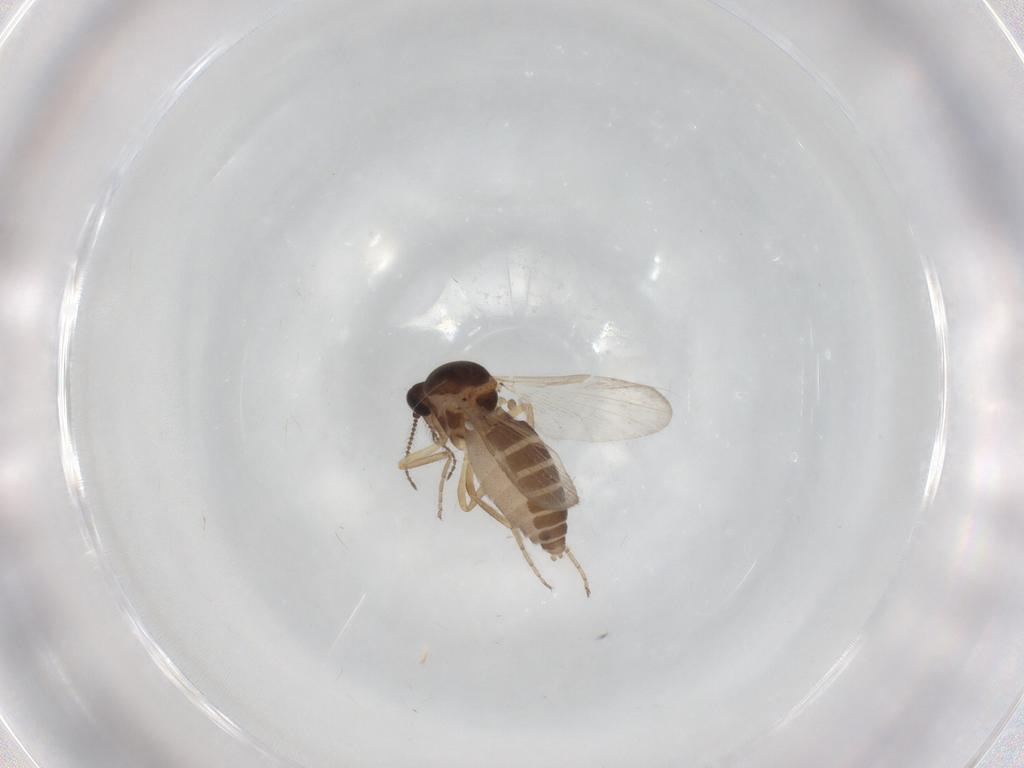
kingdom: Animalia
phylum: Arthropoda
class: Insecta
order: Diptera
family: Ceratopogonidae
